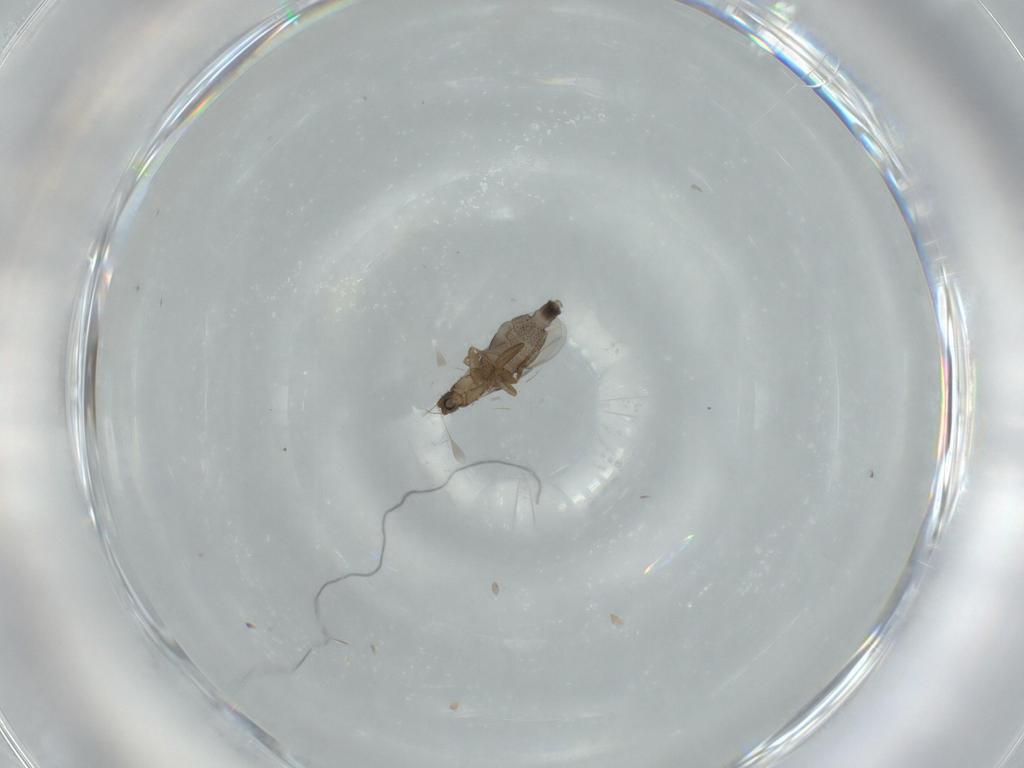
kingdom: Animalia
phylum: Arthropoda
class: Insecta
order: Diptera
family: Phoridae
